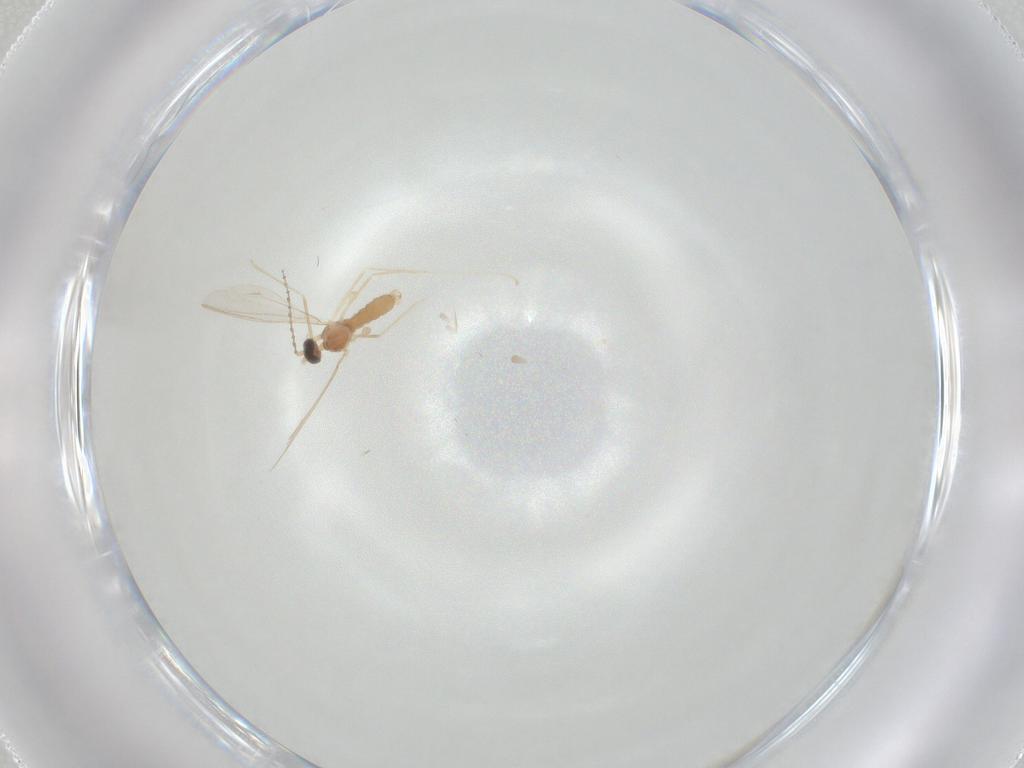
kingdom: Animalia
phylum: Arthropoda
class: Insecta
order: Diptera
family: Cecidomyiidae
